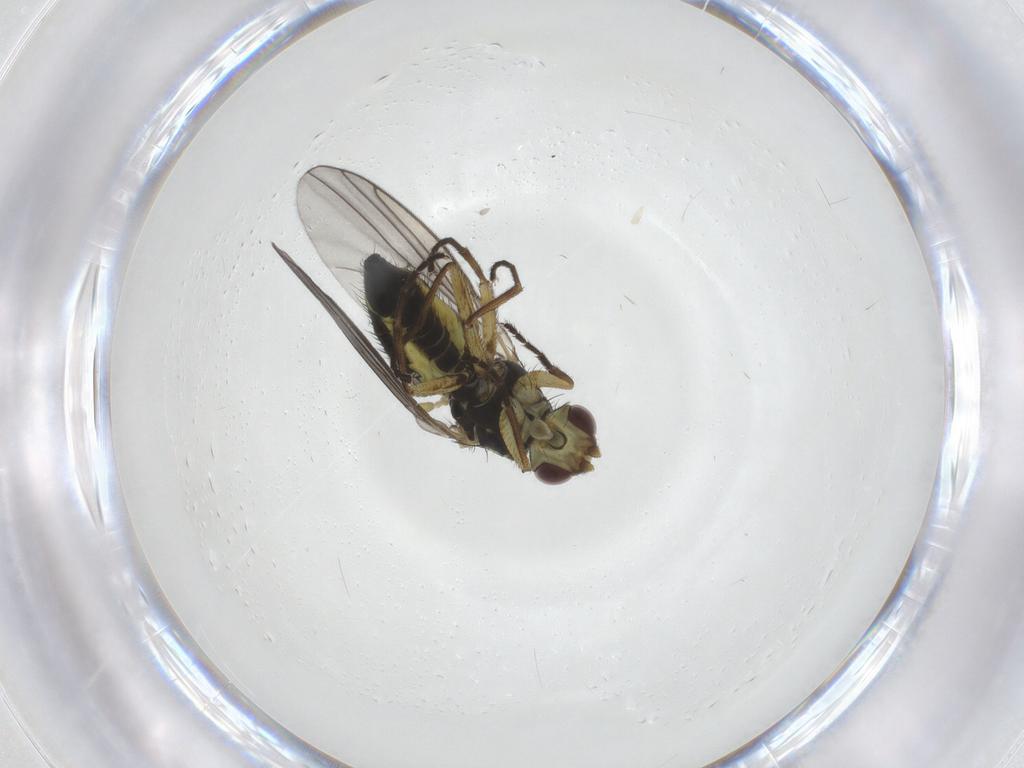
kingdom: Animalia
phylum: Arthropoda
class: Insecta
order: Diptera
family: Agromyzidae
